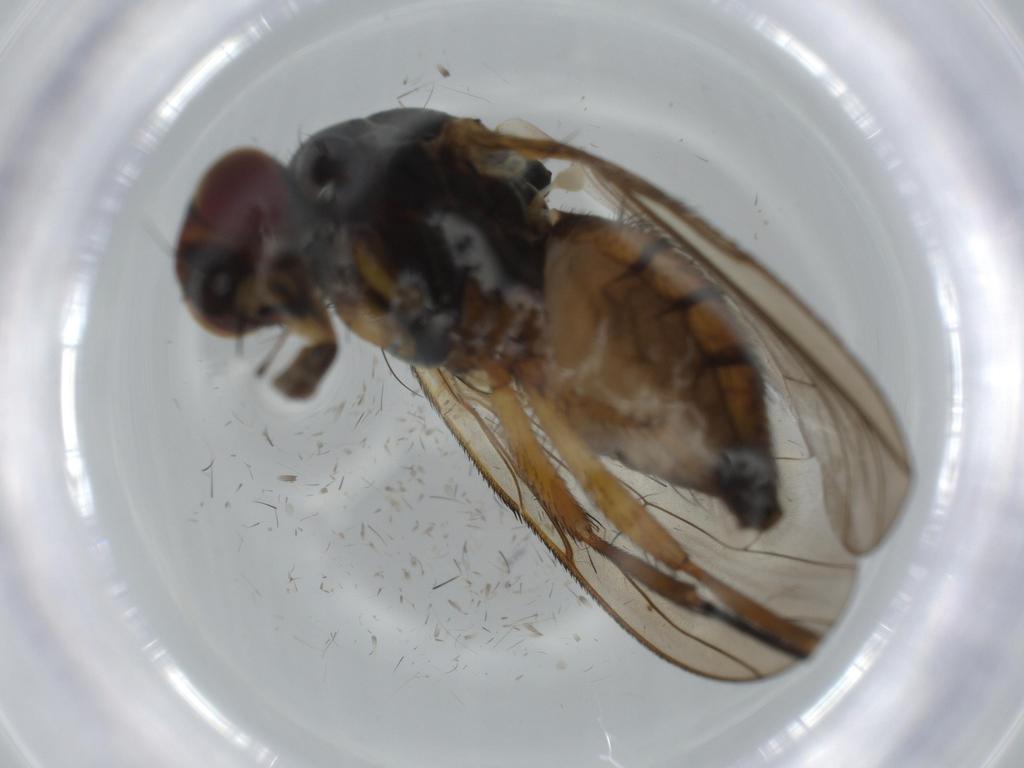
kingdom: Animalia
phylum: Arthropoda
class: Insecta
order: Diptera
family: Anthomyiidae
